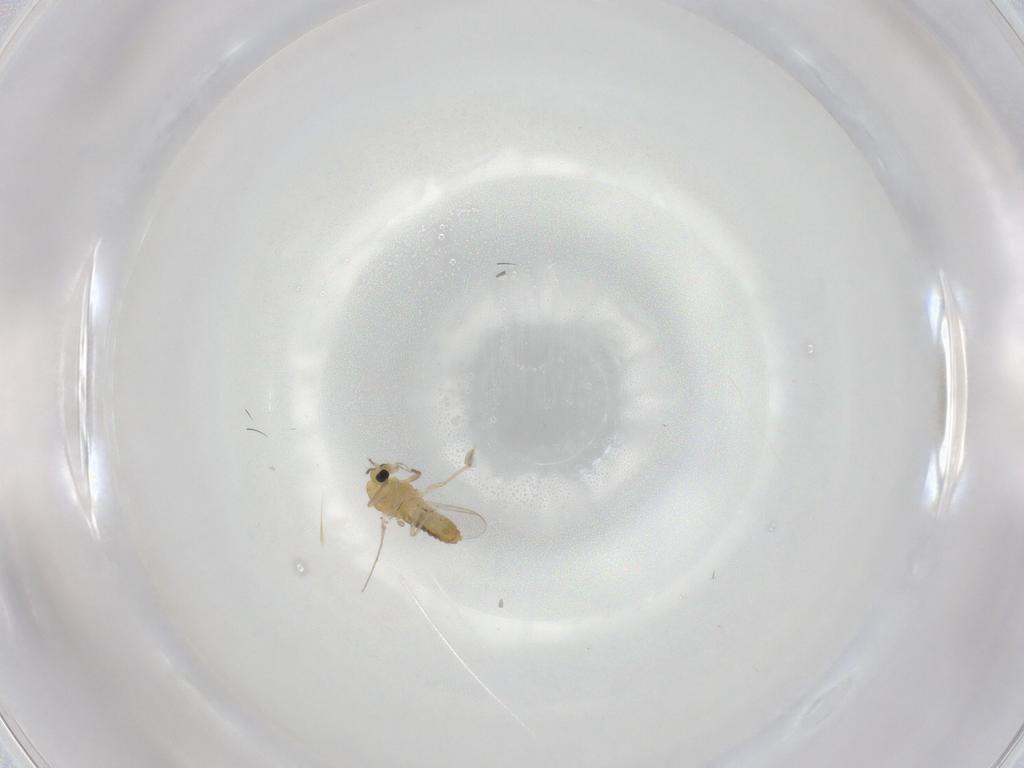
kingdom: Animalia
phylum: Arthropoda
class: Insecta
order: Diptera
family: Chironomidae
